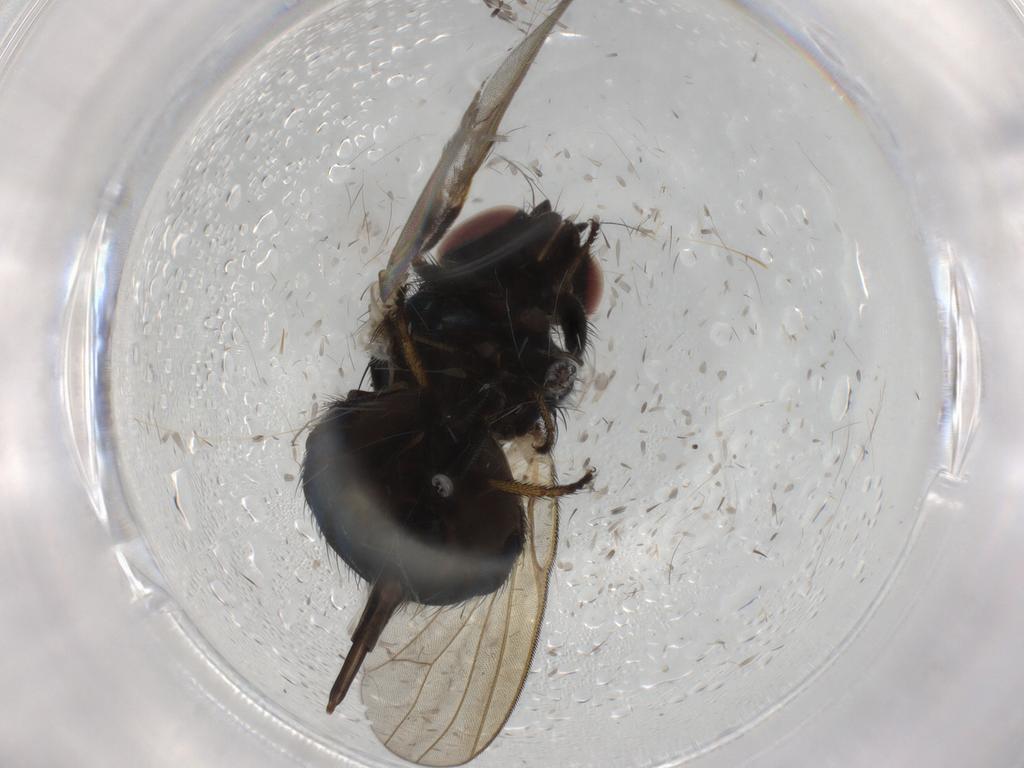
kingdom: Animalia
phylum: Arthropoda
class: Insecta
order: Diptera
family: Lonchaeidae
